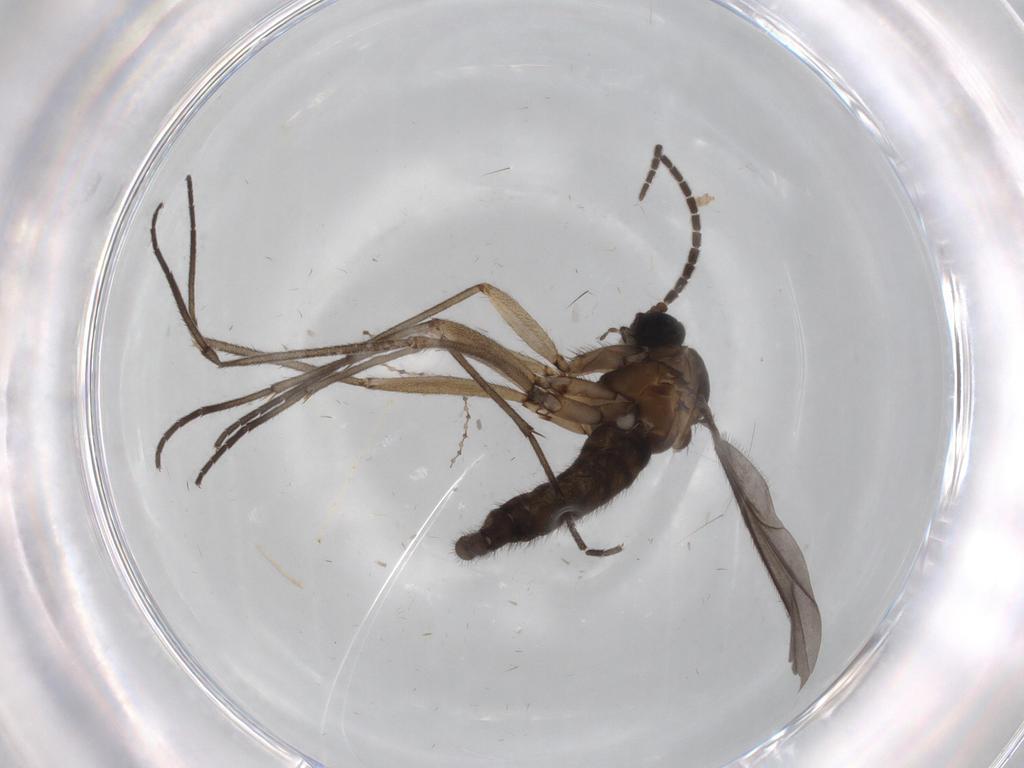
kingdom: Animalia
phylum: Arthropoda
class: Insecta
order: Diptera
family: Sciaridae
